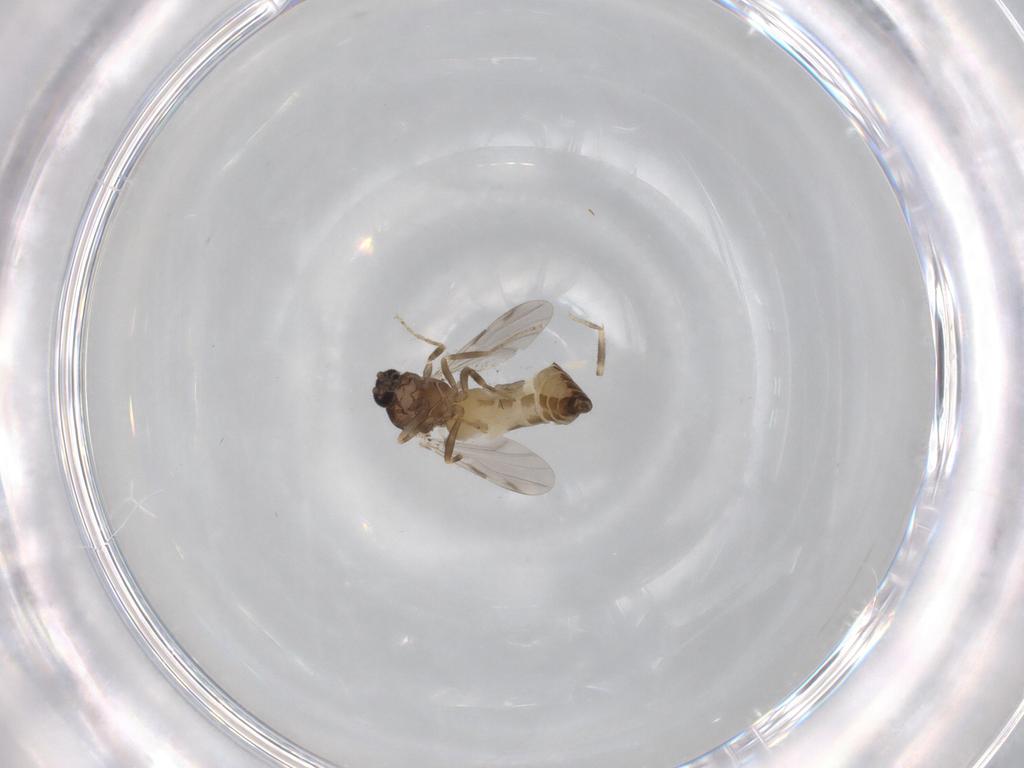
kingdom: Animalia
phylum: Arthropoda
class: Insecta
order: Diptera
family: Ceratopogonidae
